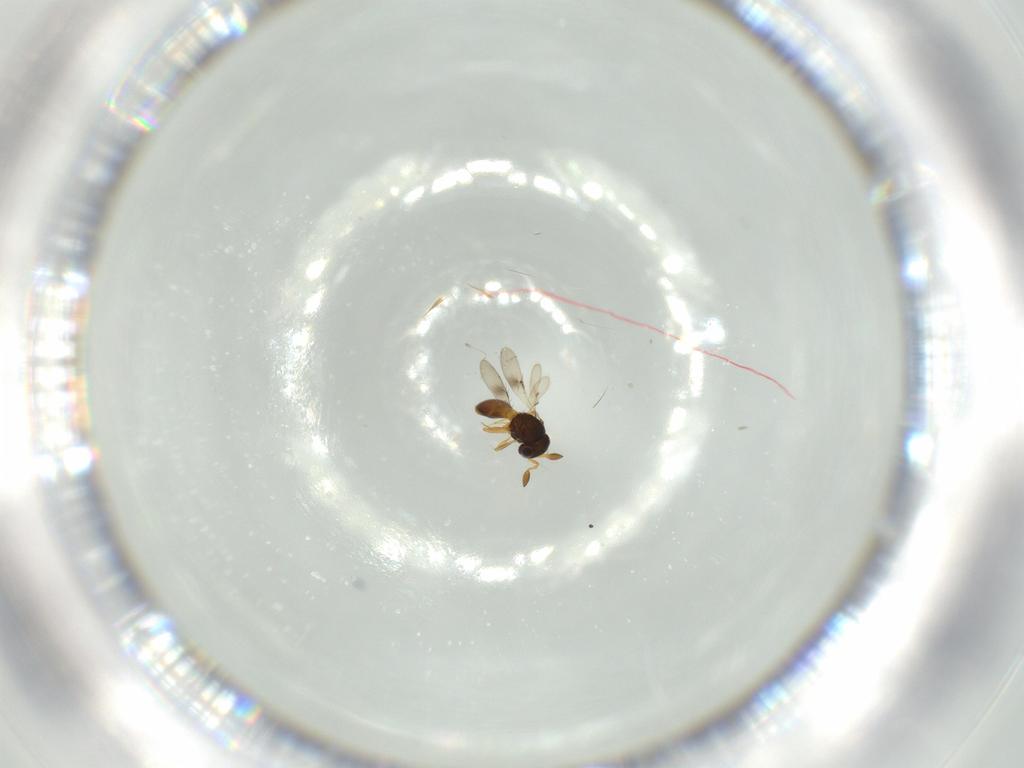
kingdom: Animalia
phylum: Arthropoda
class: Insecta
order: Hymenoptera
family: Scelionidae
